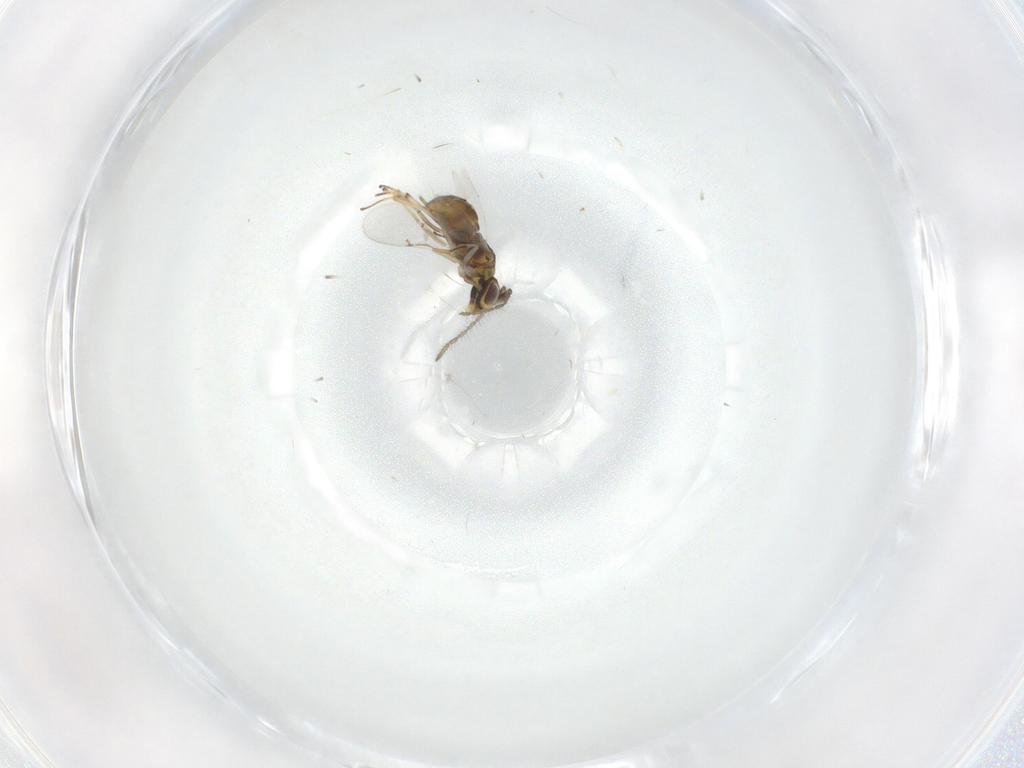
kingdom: Animalia
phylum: Arthropoda
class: Insecta
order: Hymenoptera
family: Encyrtidae
